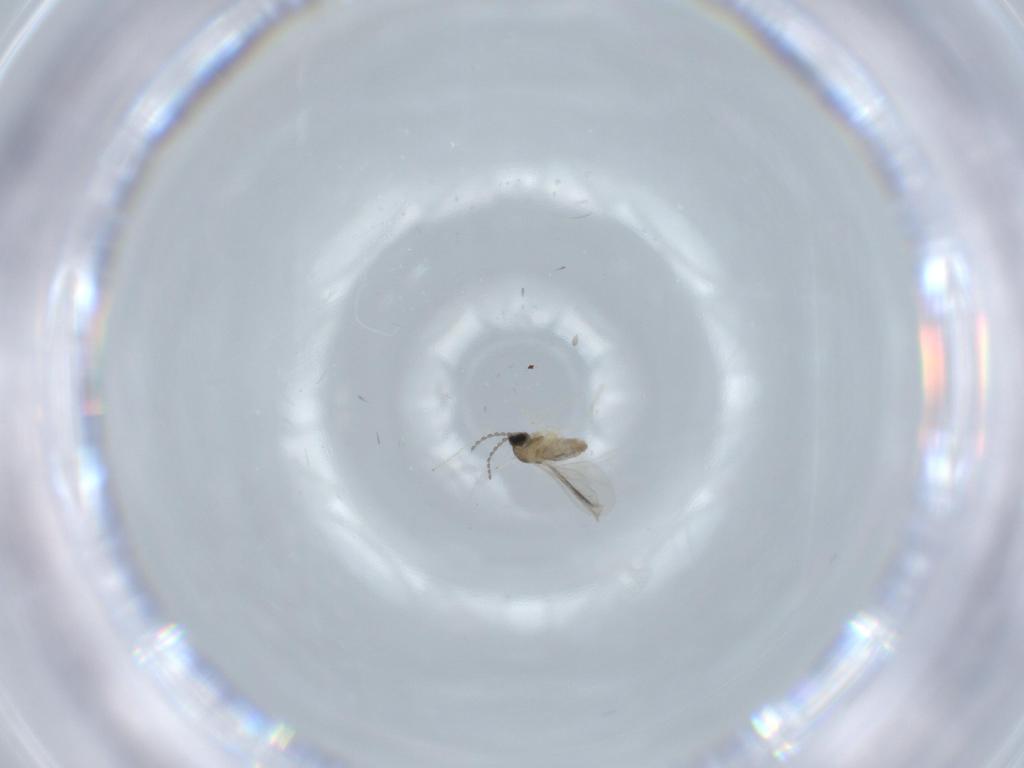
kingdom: Animalia
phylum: Arthropoda
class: Insecta
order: Diptera
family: Cecidomyiidae
